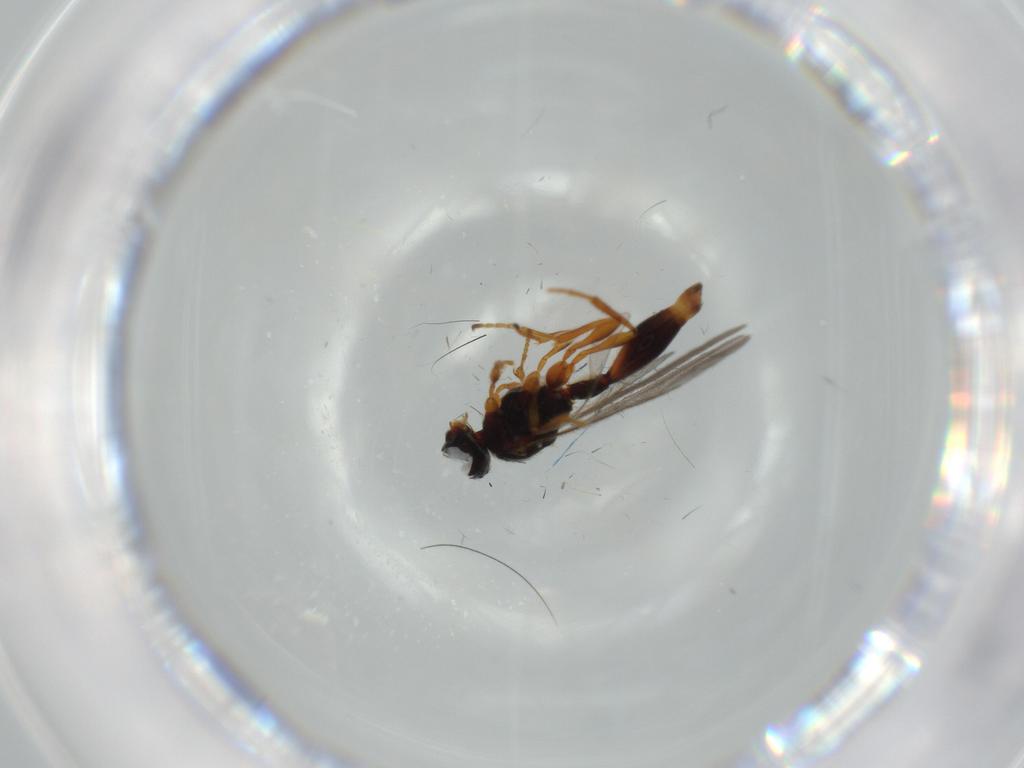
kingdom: Animalia
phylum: Arthropoda
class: Insecta
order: Hymenoptera
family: Diapriidae
